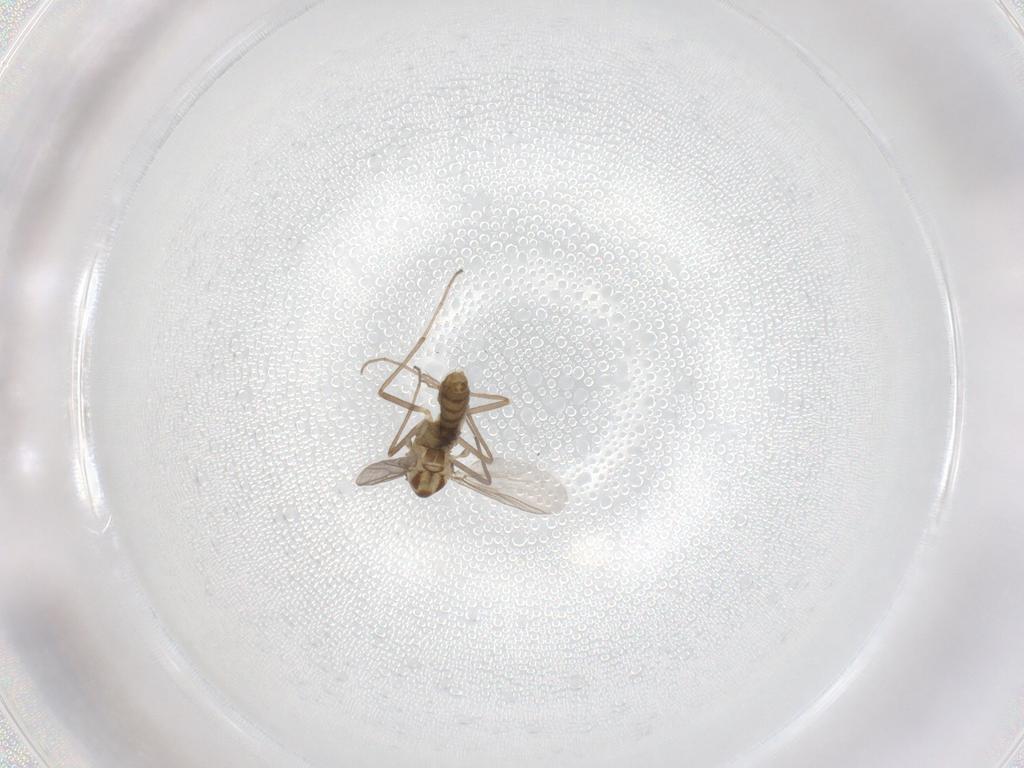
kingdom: Animalia
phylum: Arthropoda
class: Insecta
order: Diptera
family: Chironomidae
